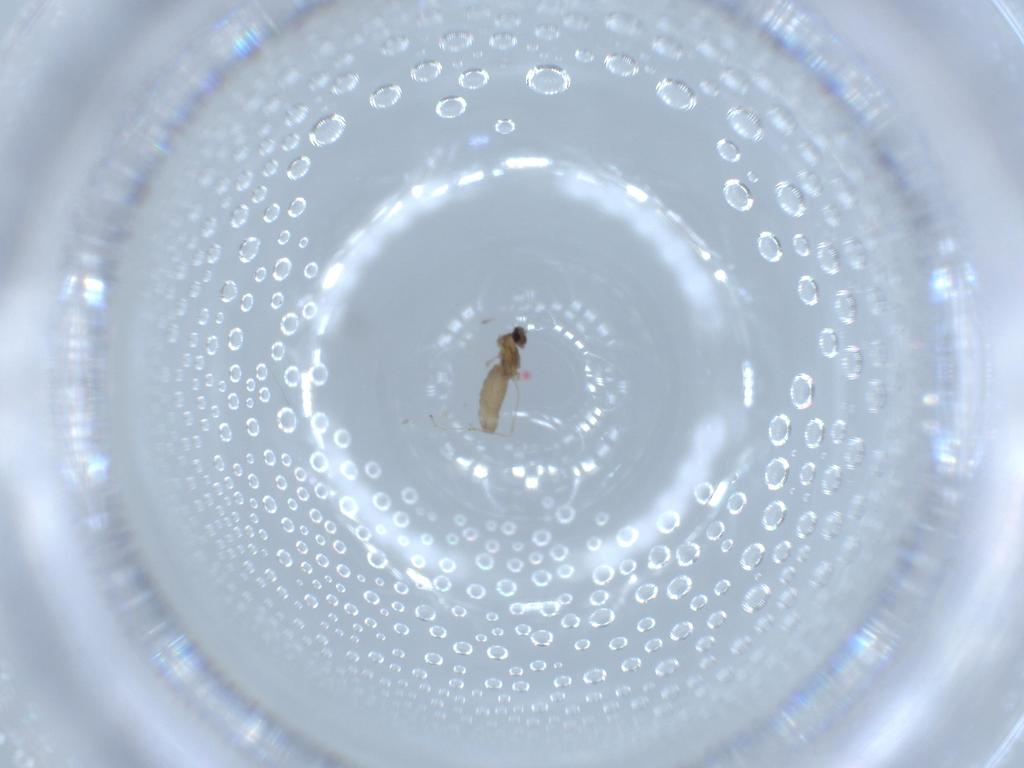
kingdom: Animalia
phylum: Arthropoda
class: Insecta
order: Diptera
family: Cecidomyiidae
